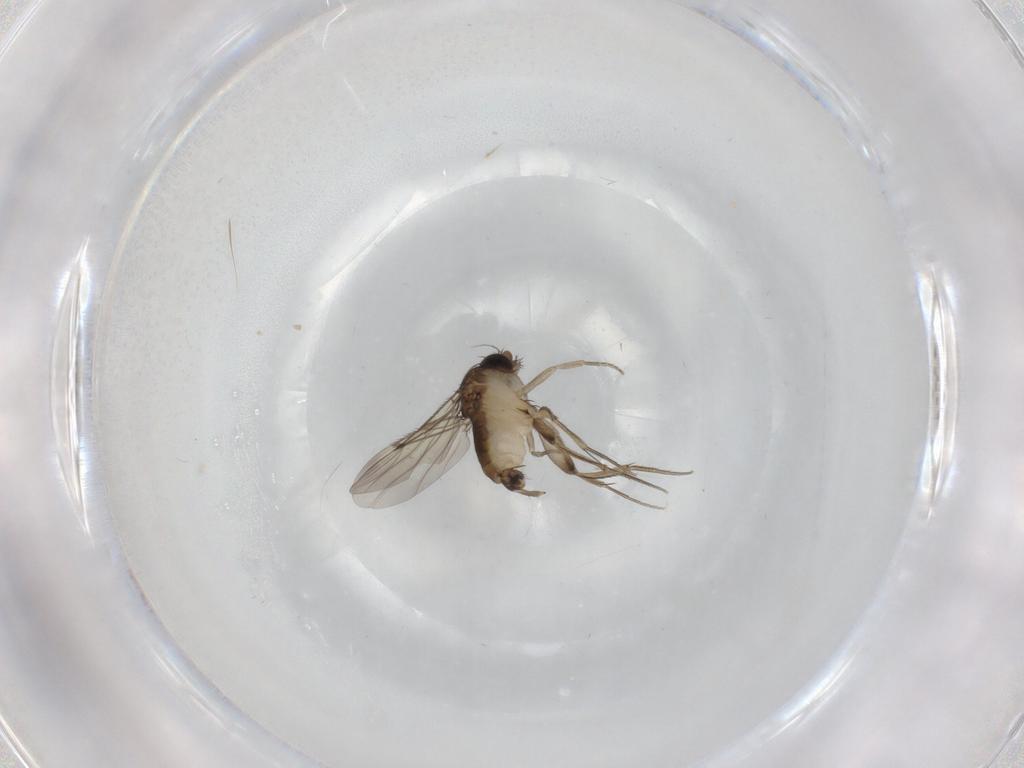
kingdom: Animalia
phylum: Arthropoda
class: Insecta
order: Diptera
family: Phoridae
